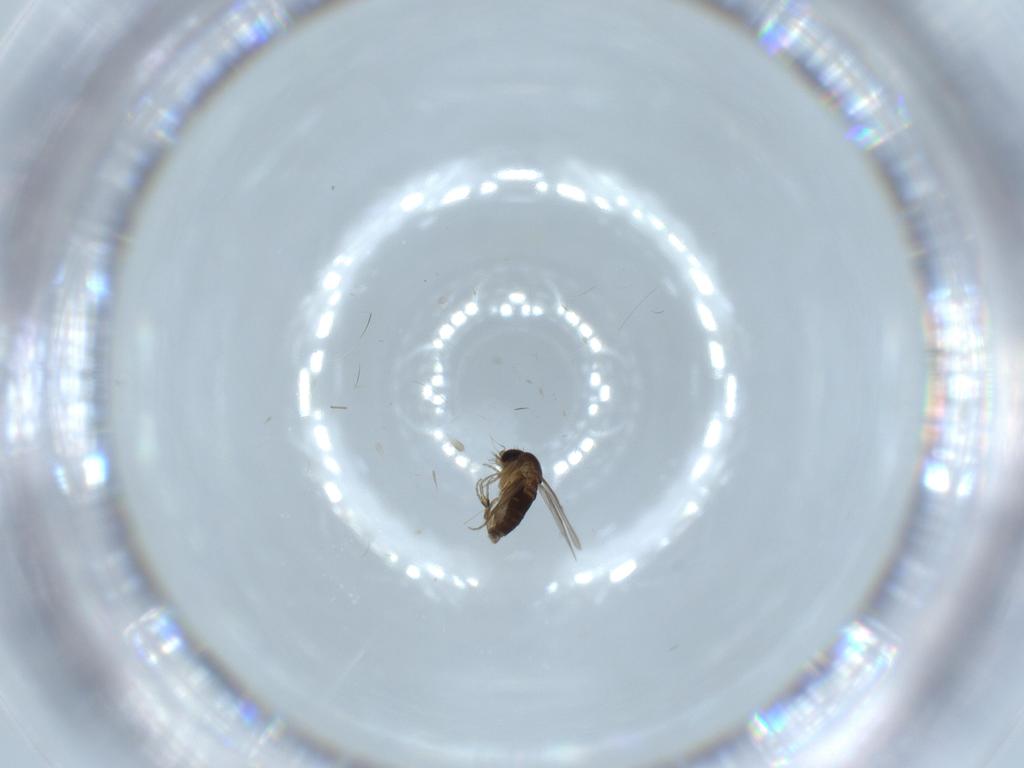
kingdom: Animalia
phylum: Arthropoda
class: Insecta
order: Diptera
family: Phoridae
